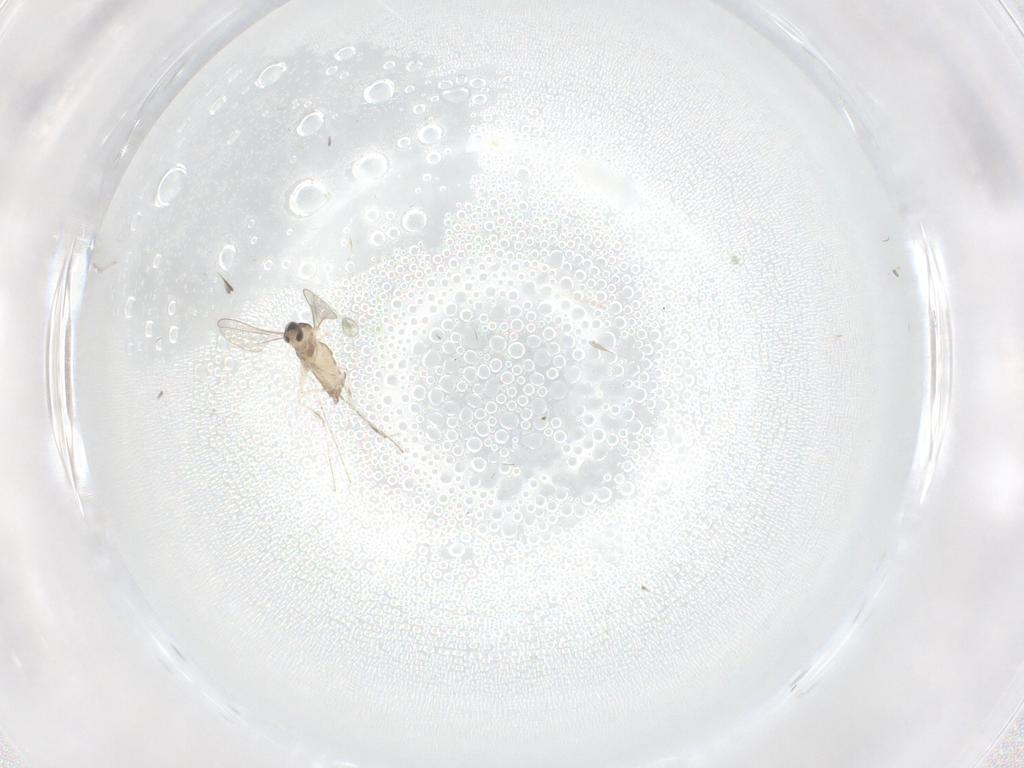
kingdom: Animalia
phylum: Arthropoda
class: Insecta
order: Diptera
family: Cecidomyiidae
